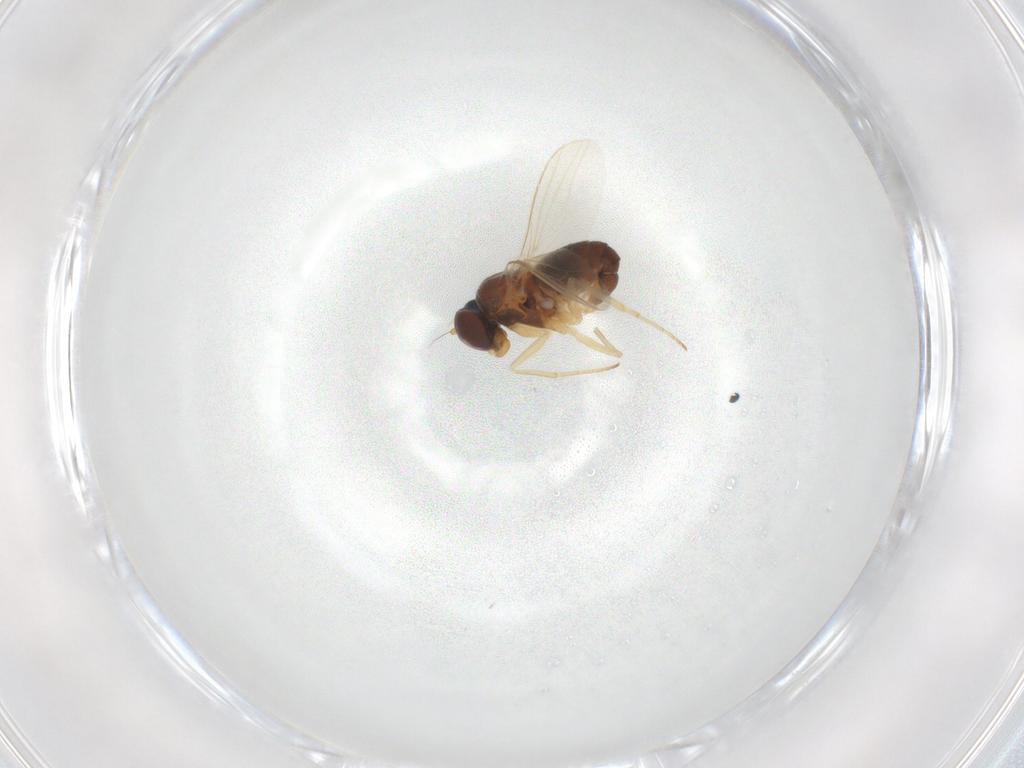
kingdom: Animalia
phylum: Arthropoda
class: Insecta
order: Diptera
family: Dolichopodidae
